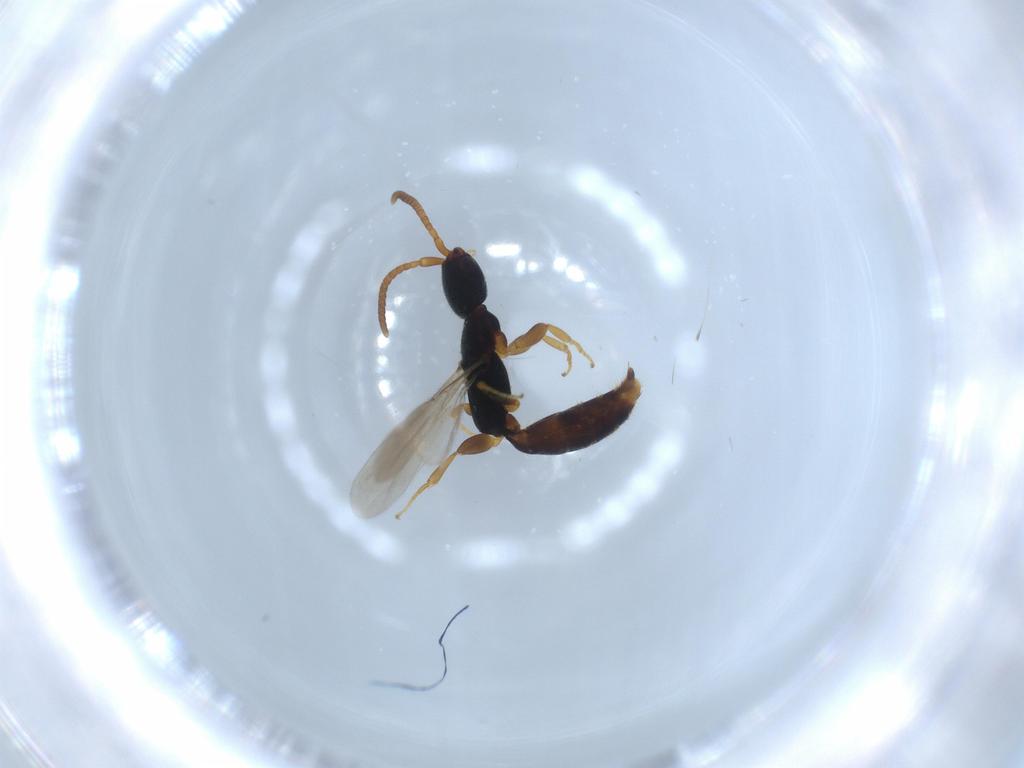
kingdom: Animalia
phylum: Arthropoda
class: Insecta
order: Hymenoptera
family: Bethylidae
